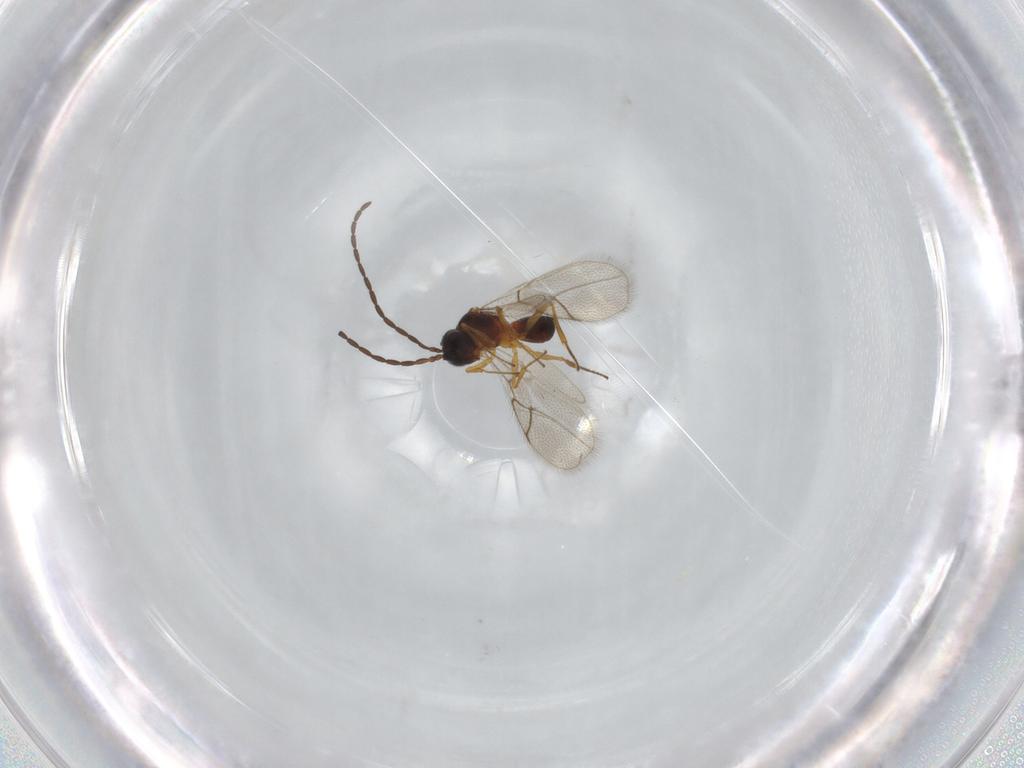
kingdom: Animalia
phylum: Arthropoda
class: Insecta
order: Hymenoptera
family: Figitidae
